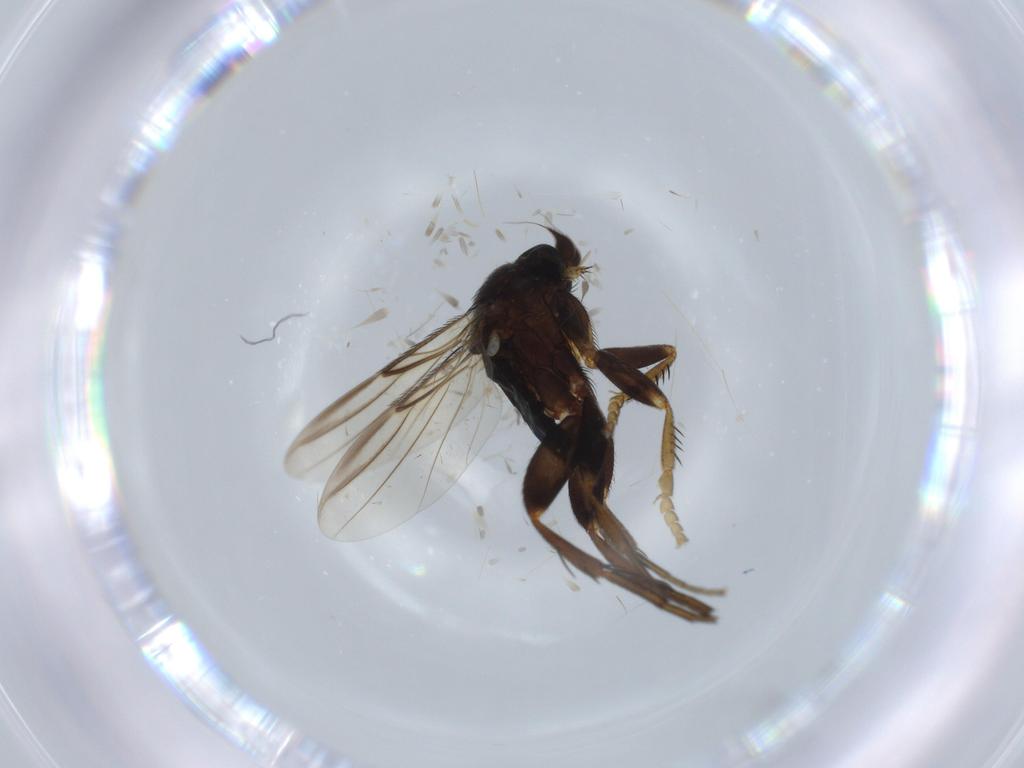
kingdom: Animalia
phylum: Arthropoda
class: Insecta
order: Diptera
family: Phoridae
